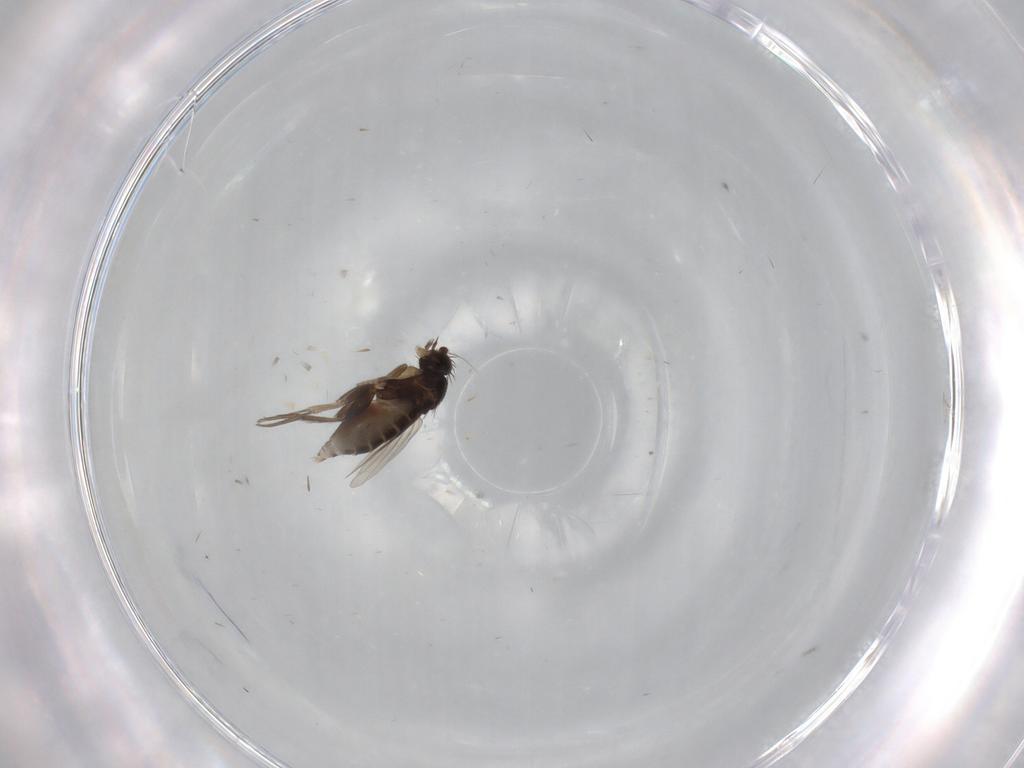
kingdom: Animalia
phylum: Arthropoda
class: Insecta
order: Diptera
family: Phoridae
